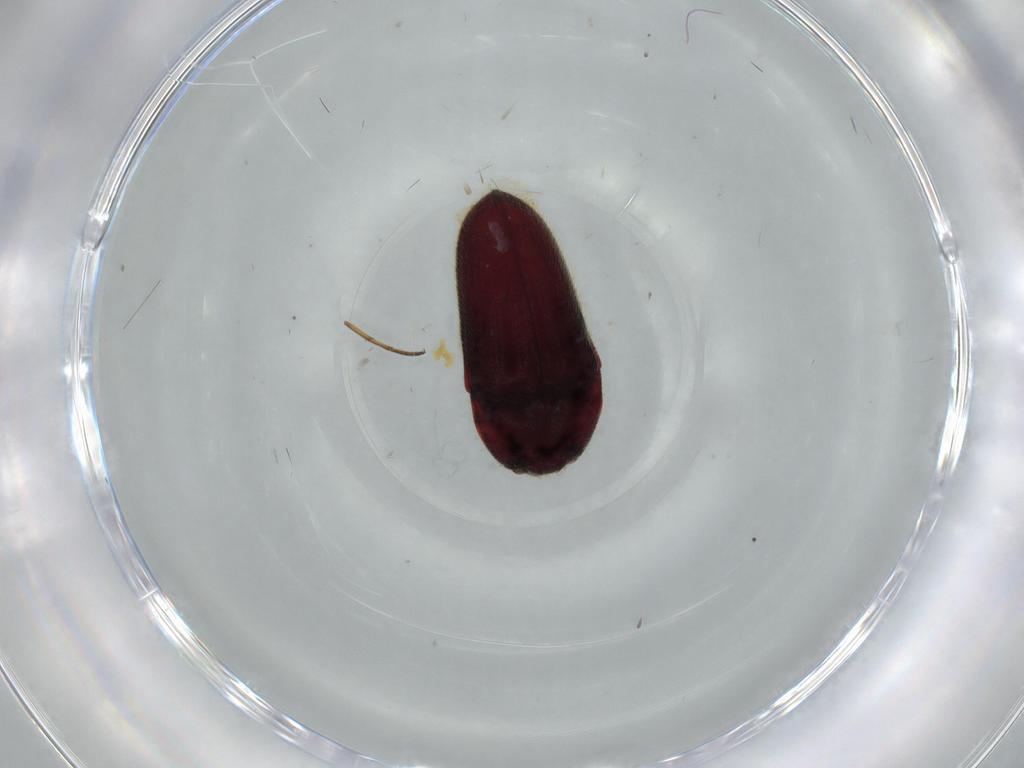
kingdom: Animalia
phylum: Arthropoda
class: Insecta
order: Coleoptera
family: Throscidae
